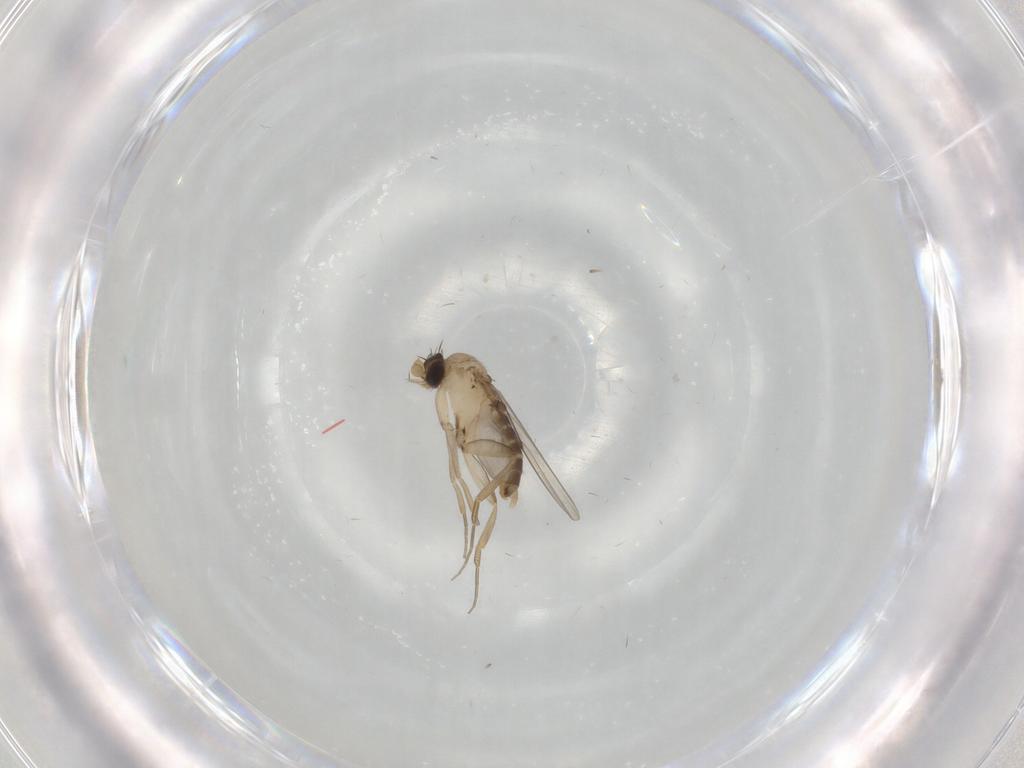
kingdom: Animalia
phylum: Arthropoda
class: Insecta
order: Diptera
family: Phoridae
